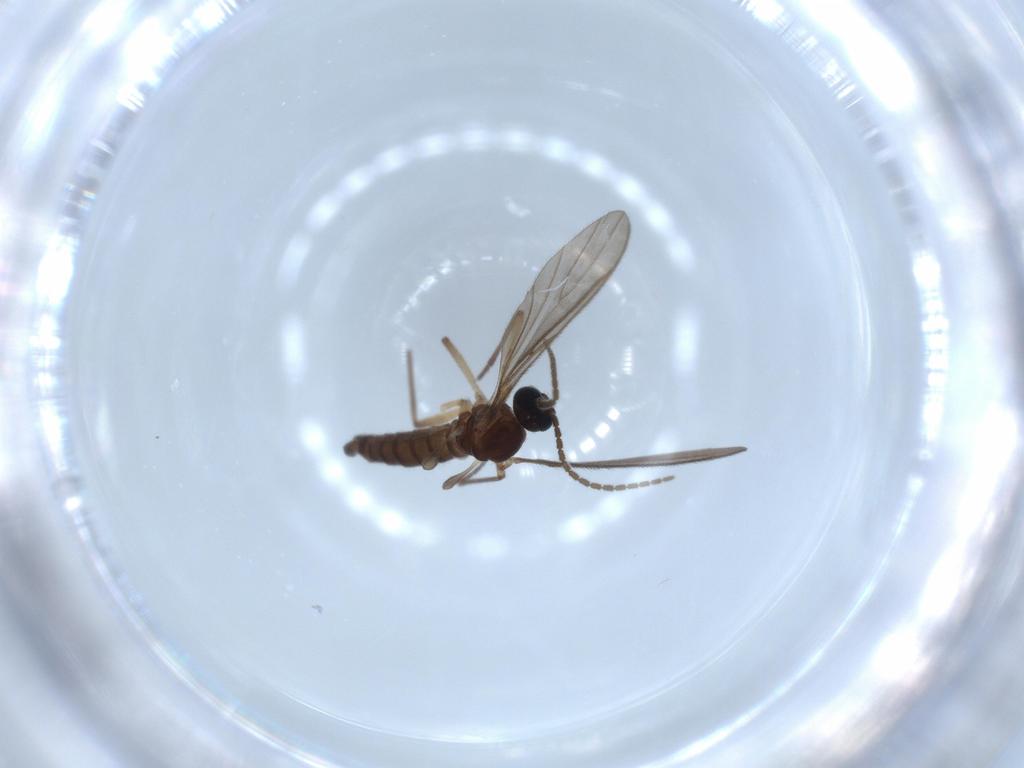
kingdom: Animalia
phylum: Arthropoda
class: Insecta
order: Diptera
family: Sciaridae
